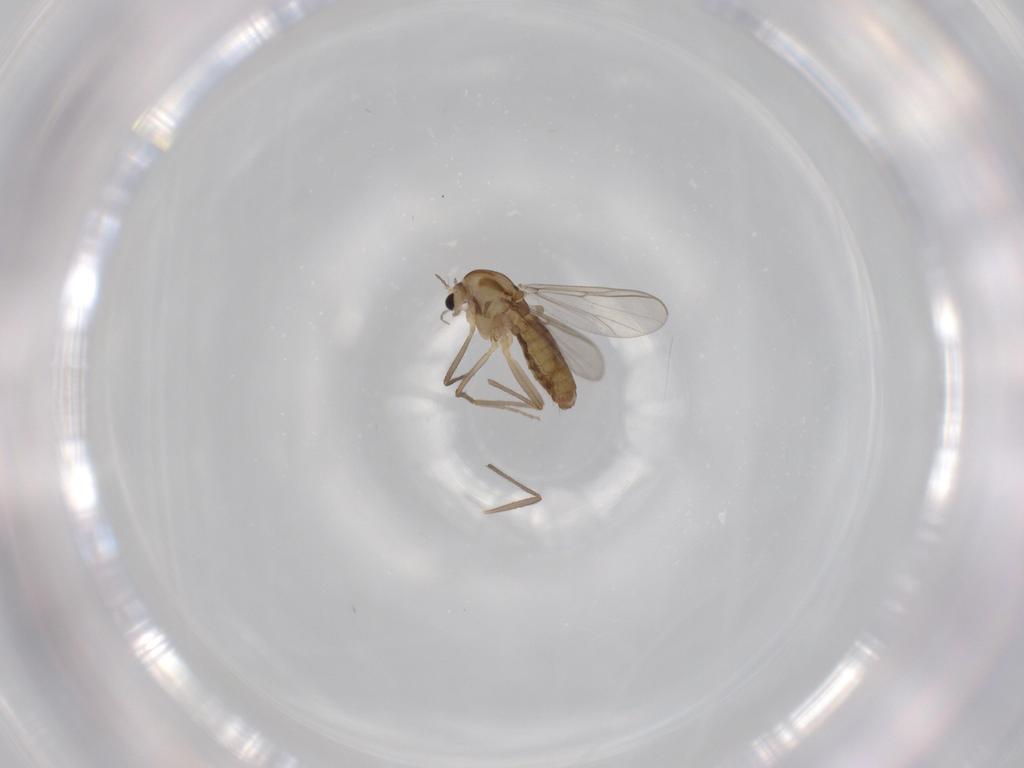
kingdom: Animalia
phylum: Arthropoda
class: Insecta
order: Diptera
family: Chironomidae
